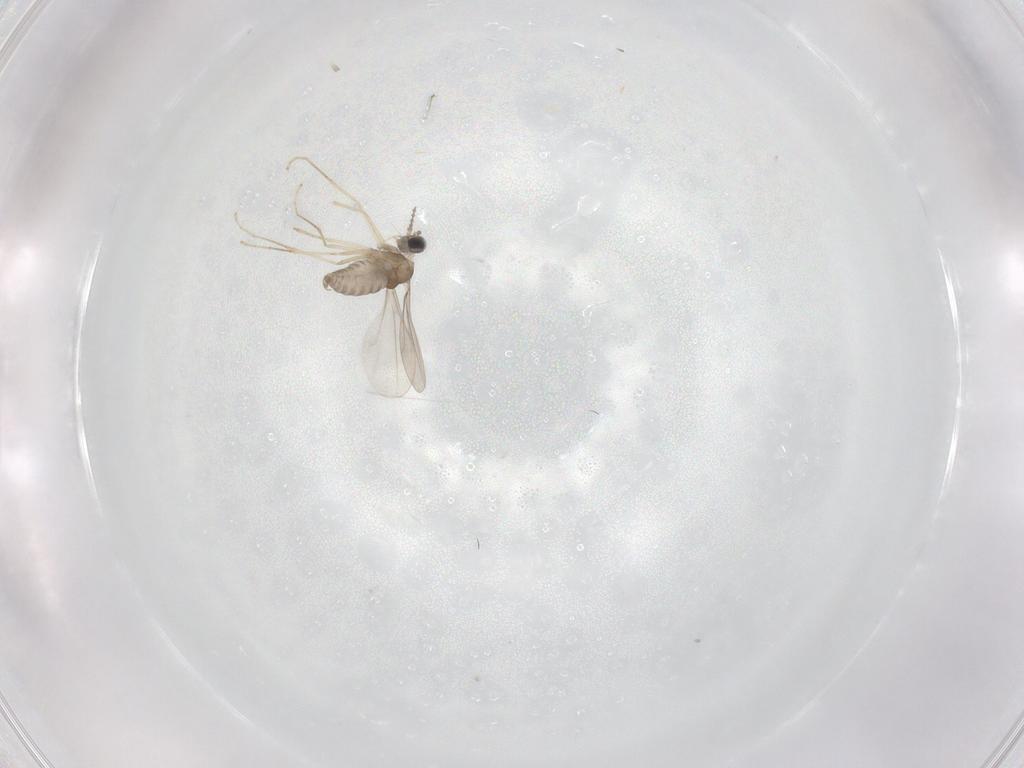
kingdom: Animalia
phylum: Arthropoda
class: Insecta
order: Diptera
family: Cecidomyiidae
